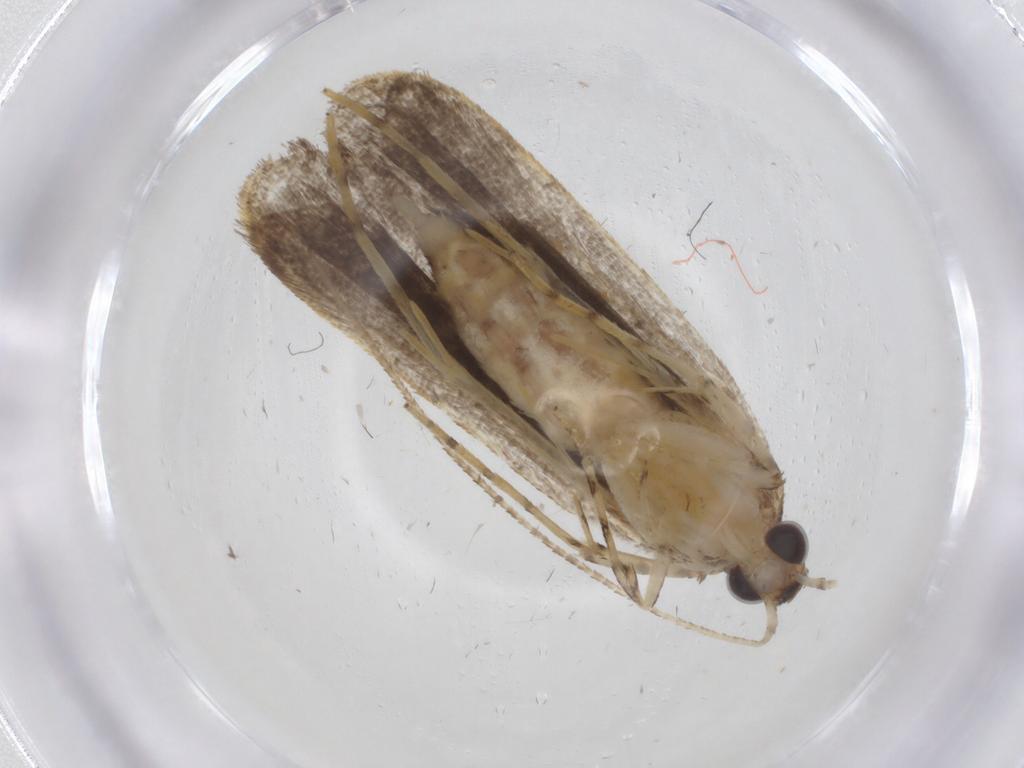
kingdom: Animalia
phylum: Arthropoda
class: Insecta
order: Lepidoptera
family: Oecophoridae
